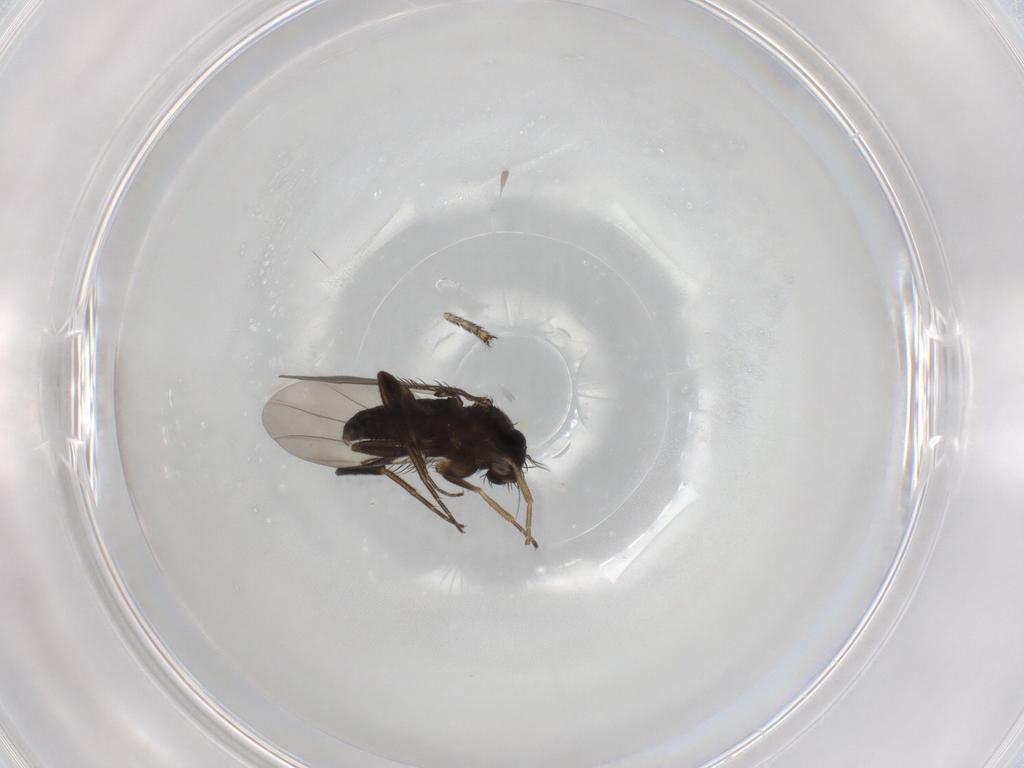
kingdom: Animalia
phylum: Arthropoda
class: Insecta
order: Diptera
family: Phoridae
